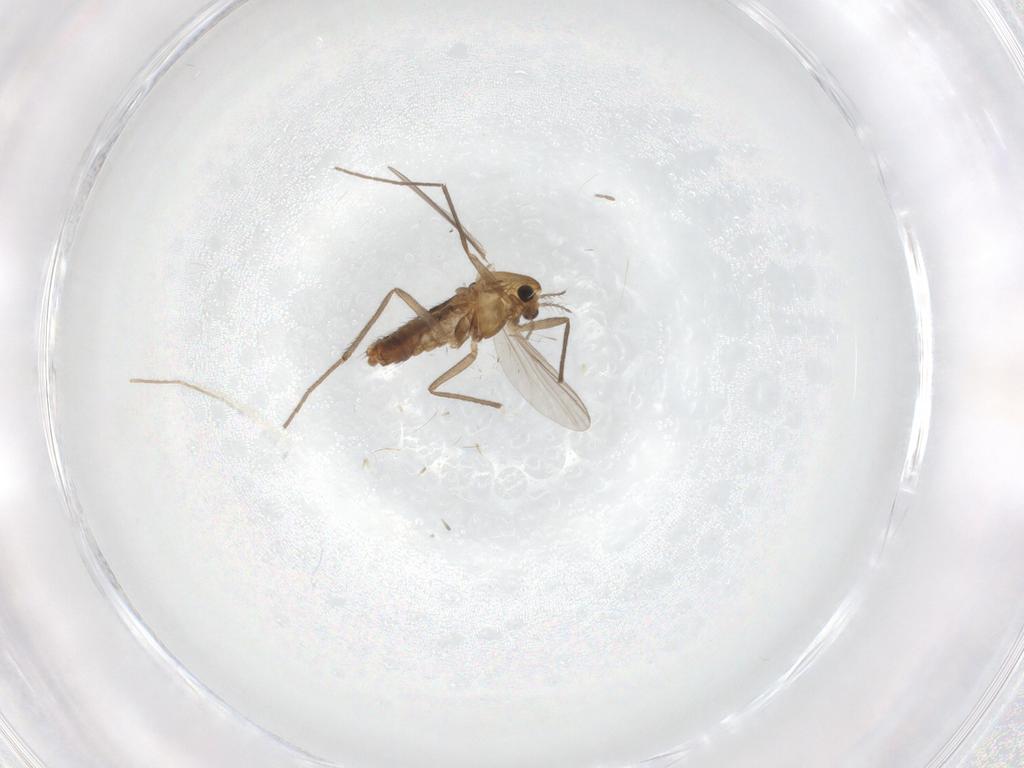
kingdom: Animalia
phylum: Arthropoda
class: Insecta
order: Diptera
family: Chironomidae
